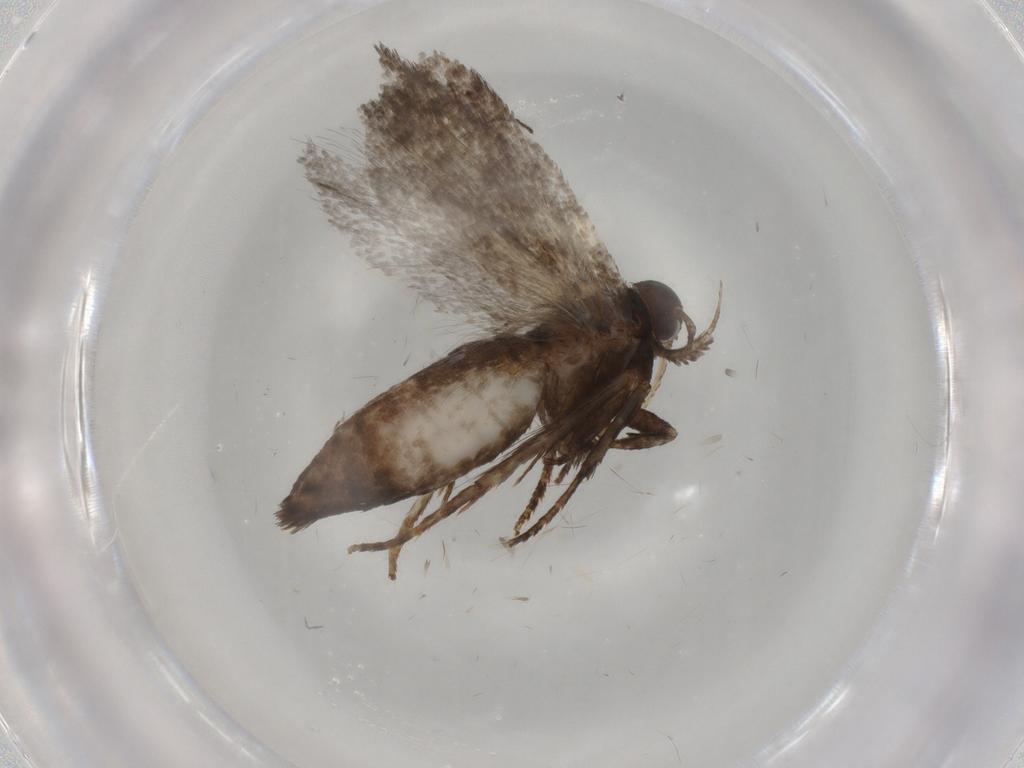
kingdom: Animalia
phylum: Arthropoda
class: Insecta
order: Lepidoptera
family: Gelechiidae
